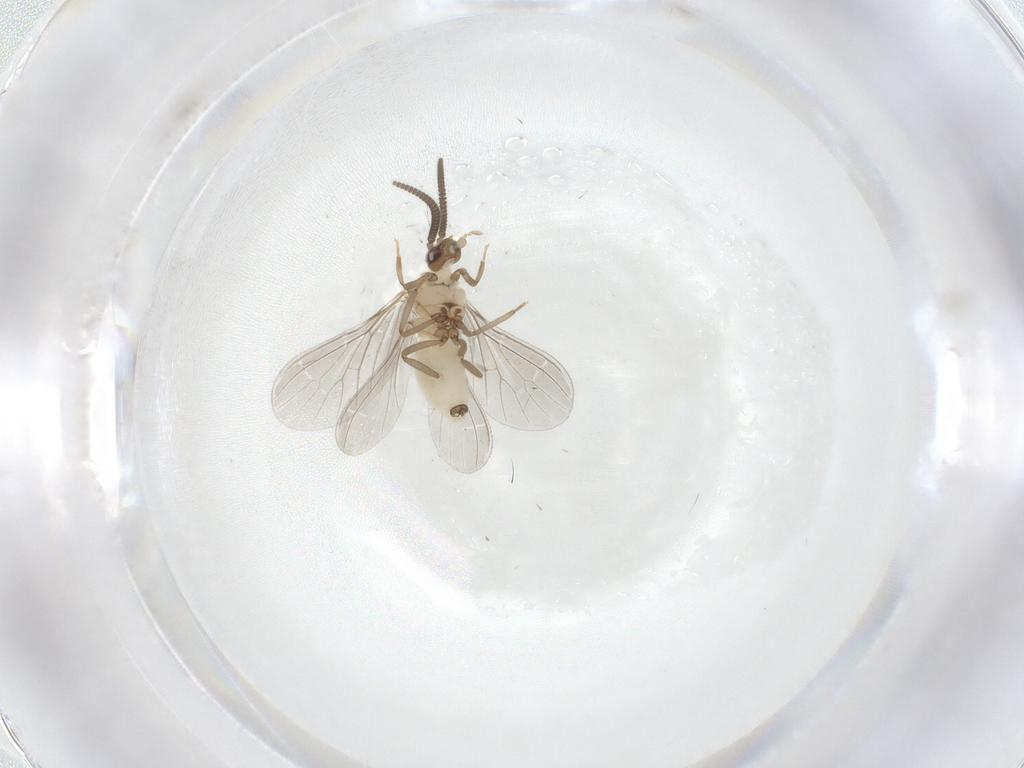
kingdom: Animalia
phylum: Arthropoda
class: Insecta
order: Neuroptera
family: Coniopterygidae
